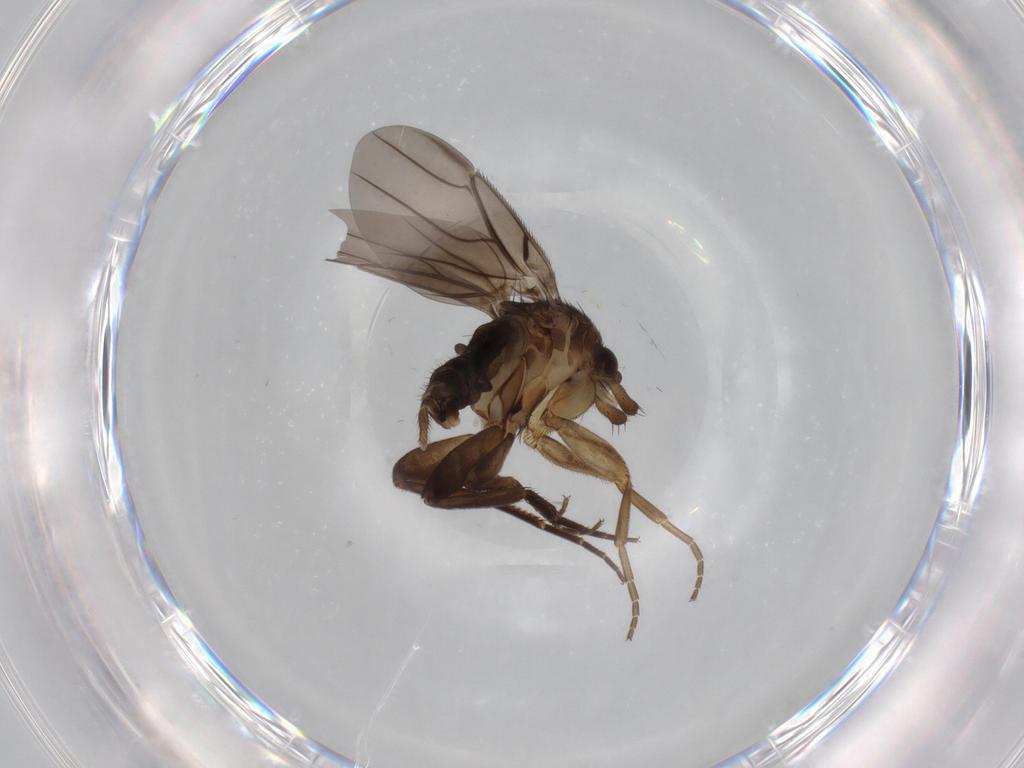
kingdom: Animalia
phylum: Arthropoda
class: Insecta
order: Diptera
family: Phoridae
